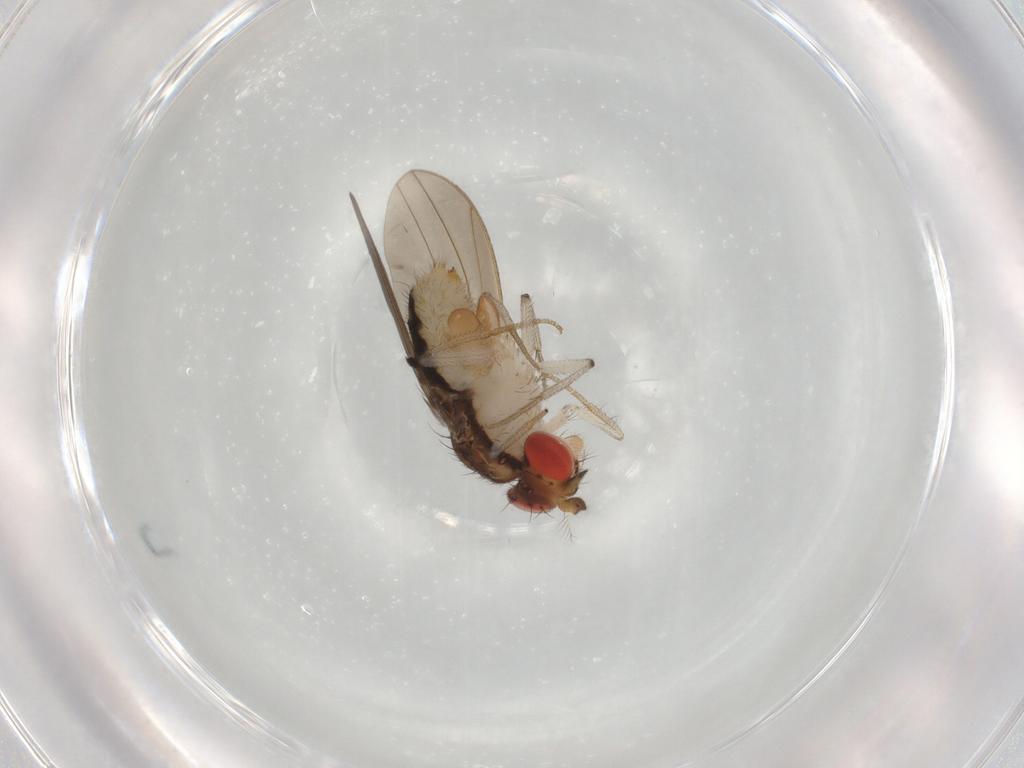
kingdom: Animalia
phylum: Arthropoda
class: Insecta
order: Diptera
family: Drosophilidae
